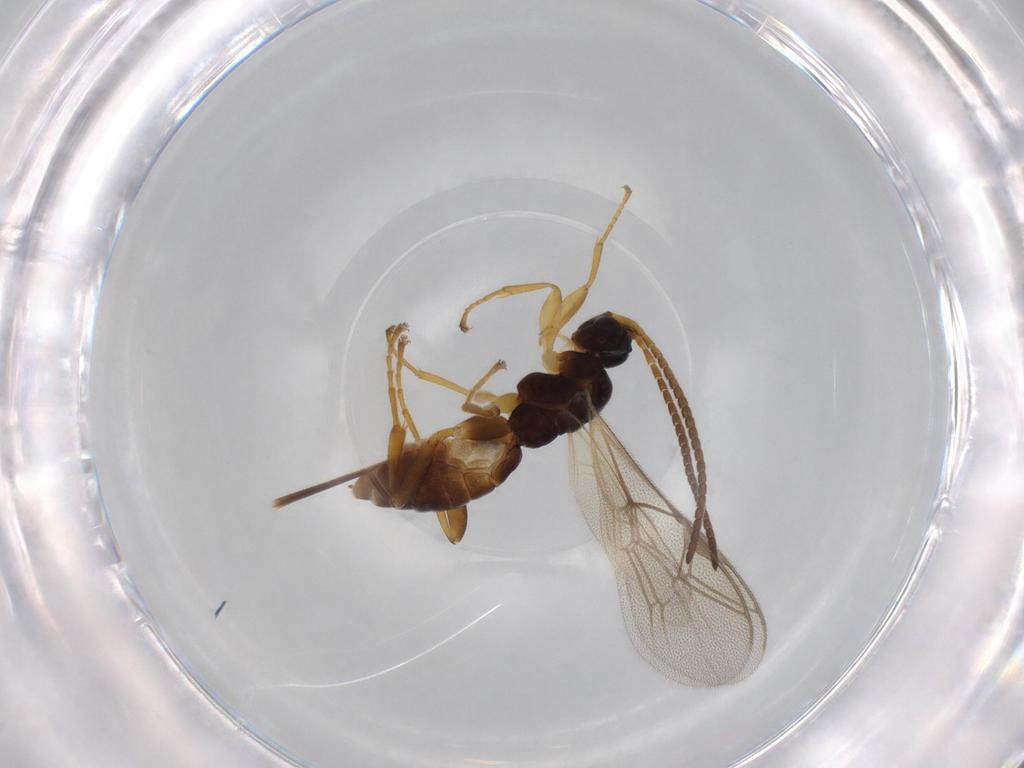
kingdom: Animalia
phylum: Arthropoda
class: Insecta
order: Hymenoptera
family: Ichneumonidae
